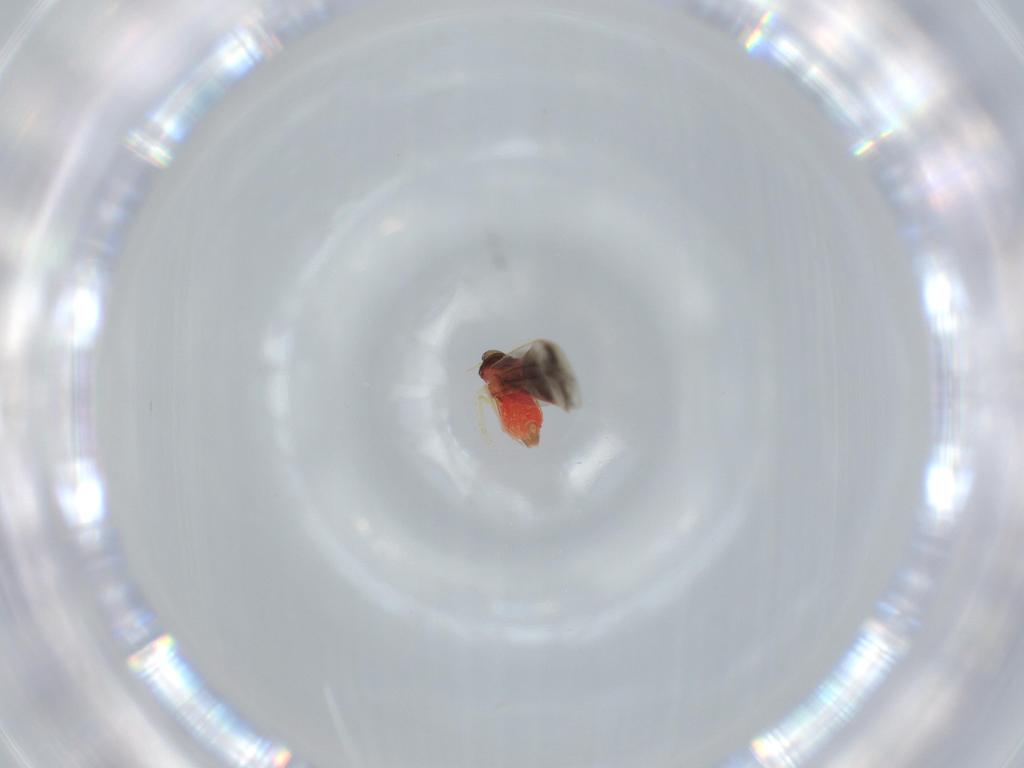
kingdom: Animalia
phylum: Arthropoda
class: Insecta
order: Hemiptera
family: Aleyrodidae
